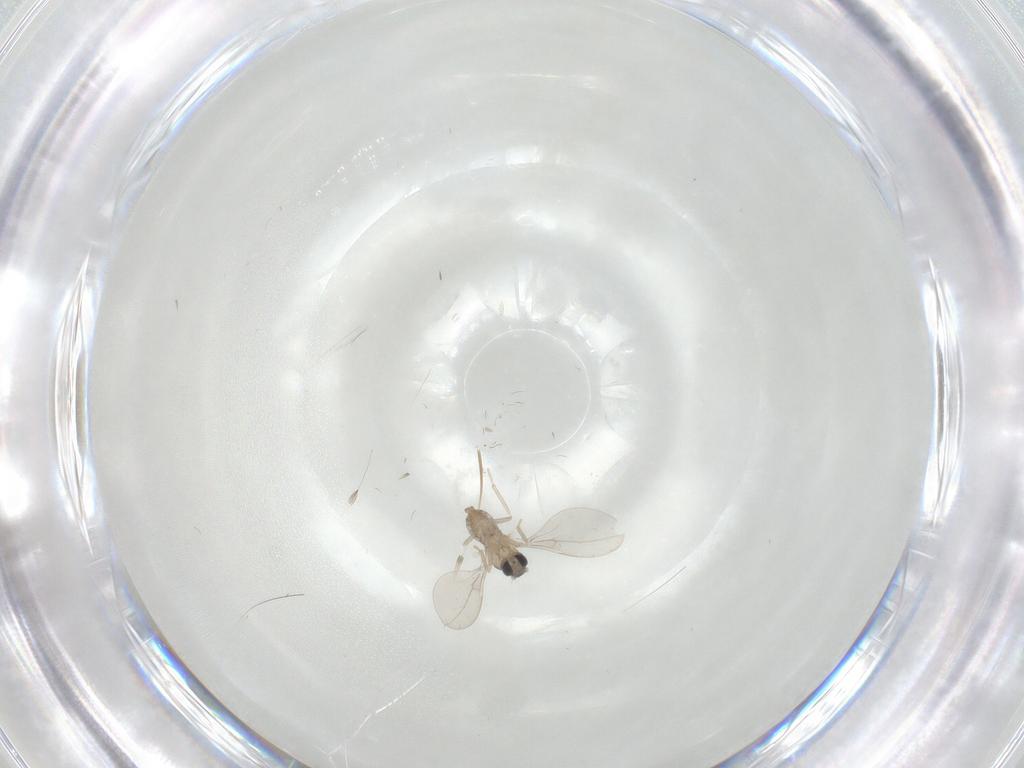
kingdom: Animalia
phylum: Arthropoda
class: Insecta
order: Diptera
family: Cecidomyiidae
